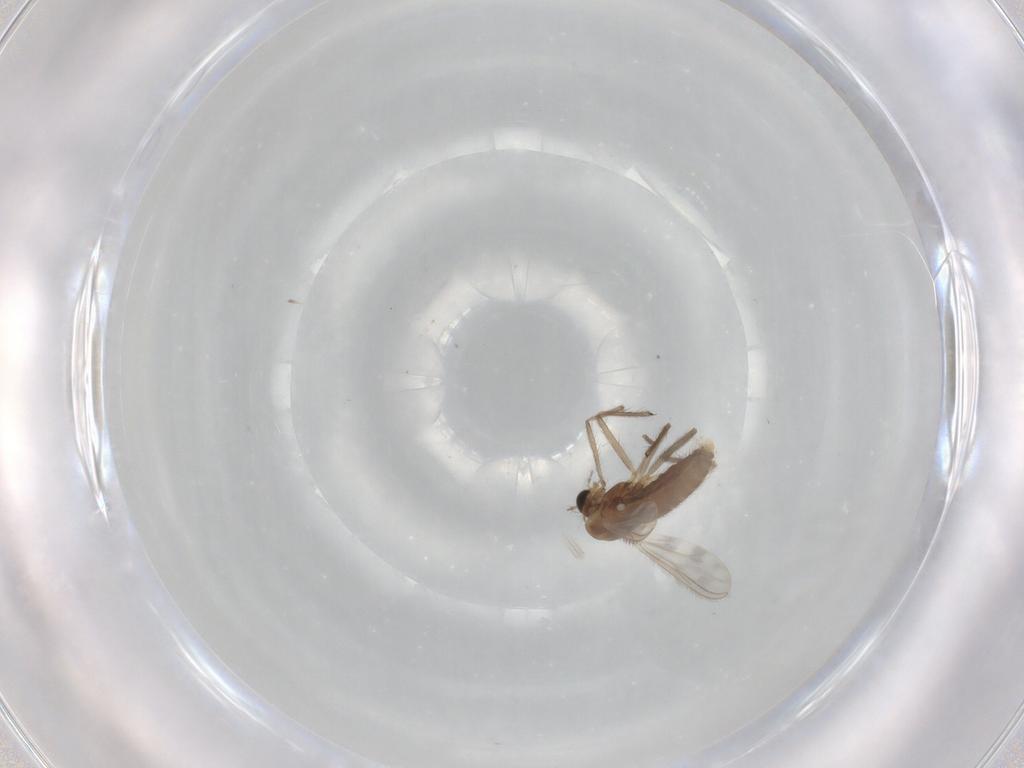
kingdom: Animalia
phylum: Arthropoda
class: Insecta
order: Diptera
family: Chironomidae
